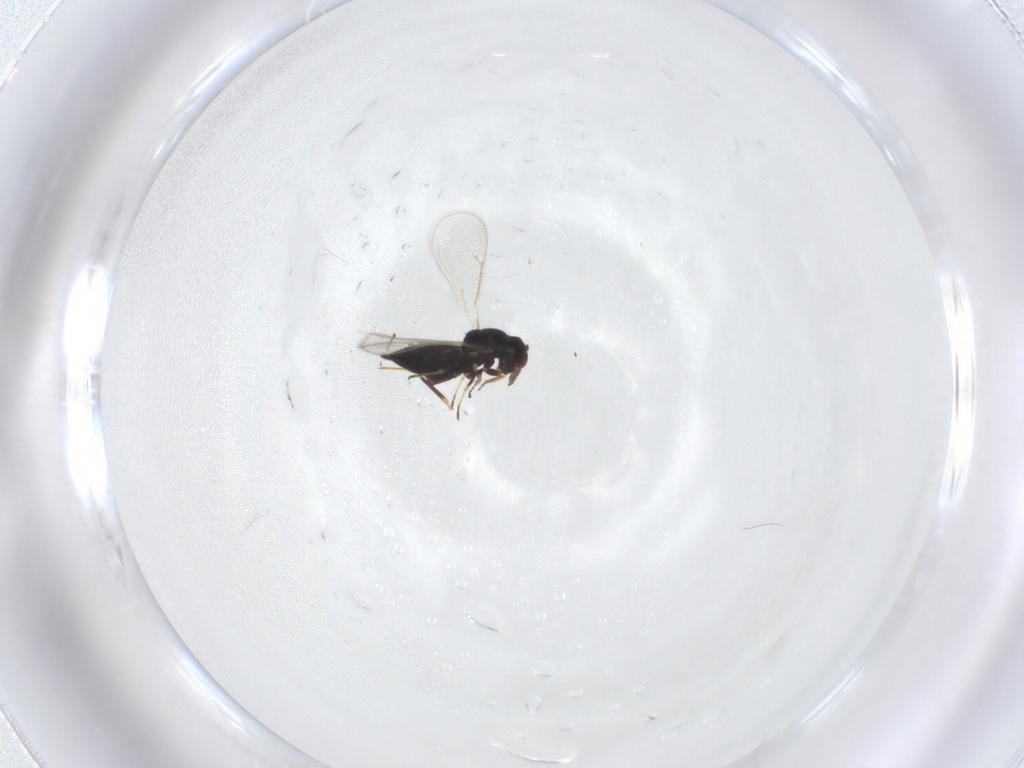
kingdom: Animalia
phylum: Arthropoda
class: Insecta
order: Hymenoptera
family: Eulophidae
